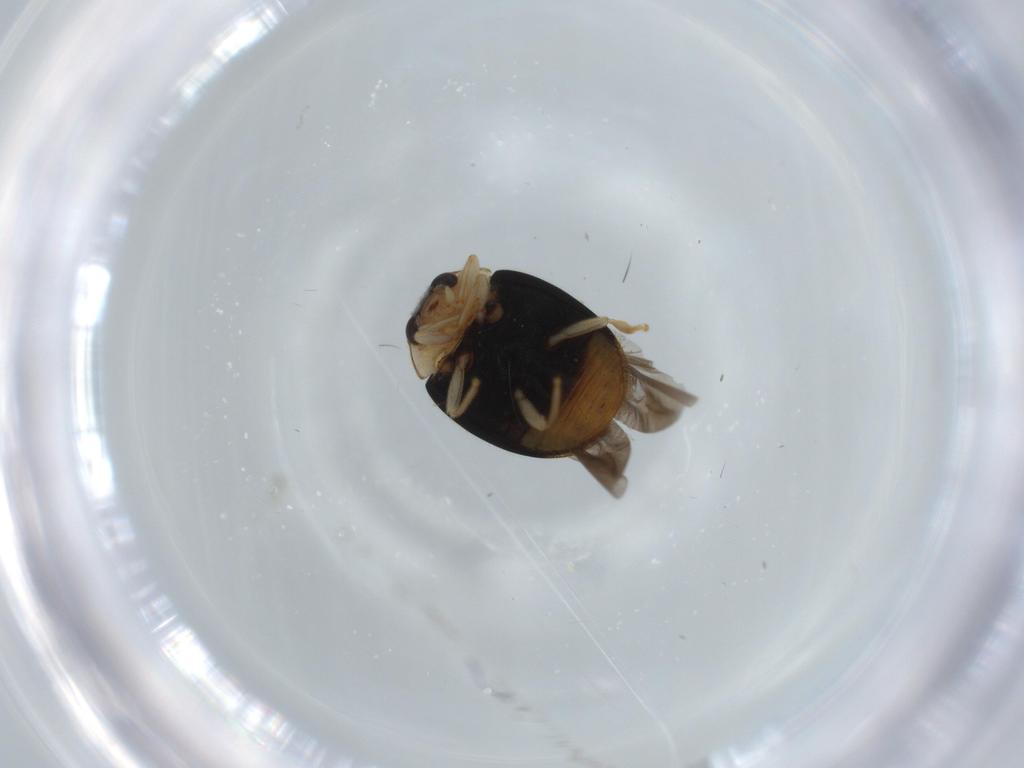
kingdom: Animalia
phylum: Arthropoda
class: Insecta
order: Coleoptera
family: Coccinellidae
